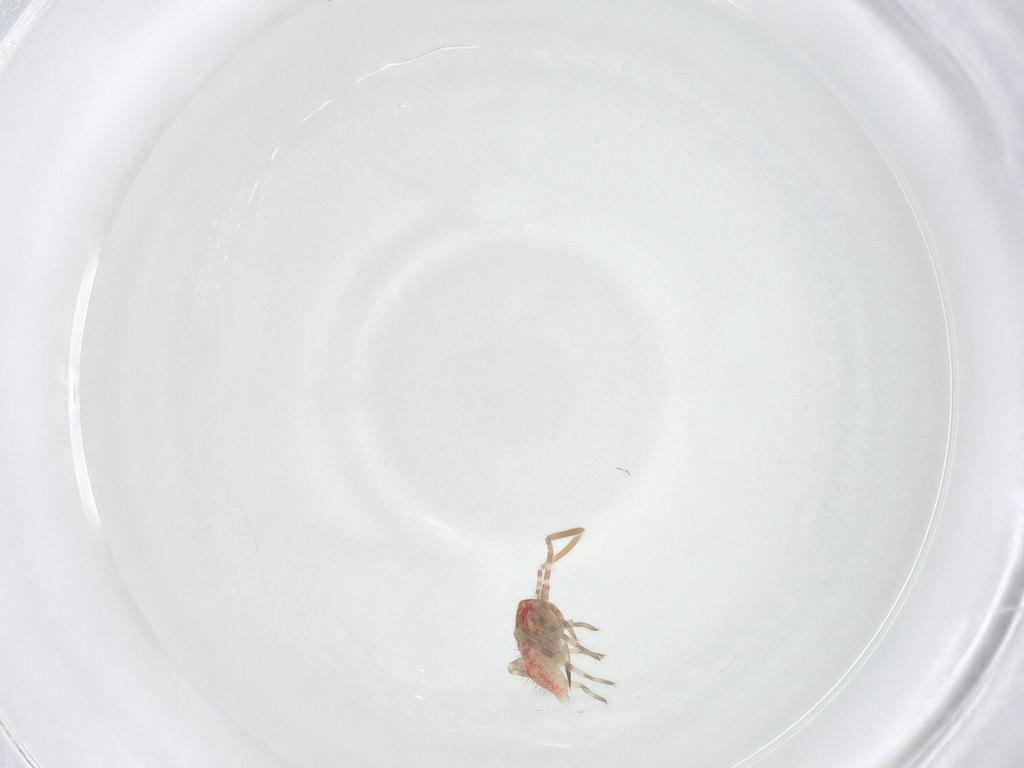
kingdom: Animalia
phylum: Arthropoda
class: Insecta
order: Hemiptera
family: Miridae
